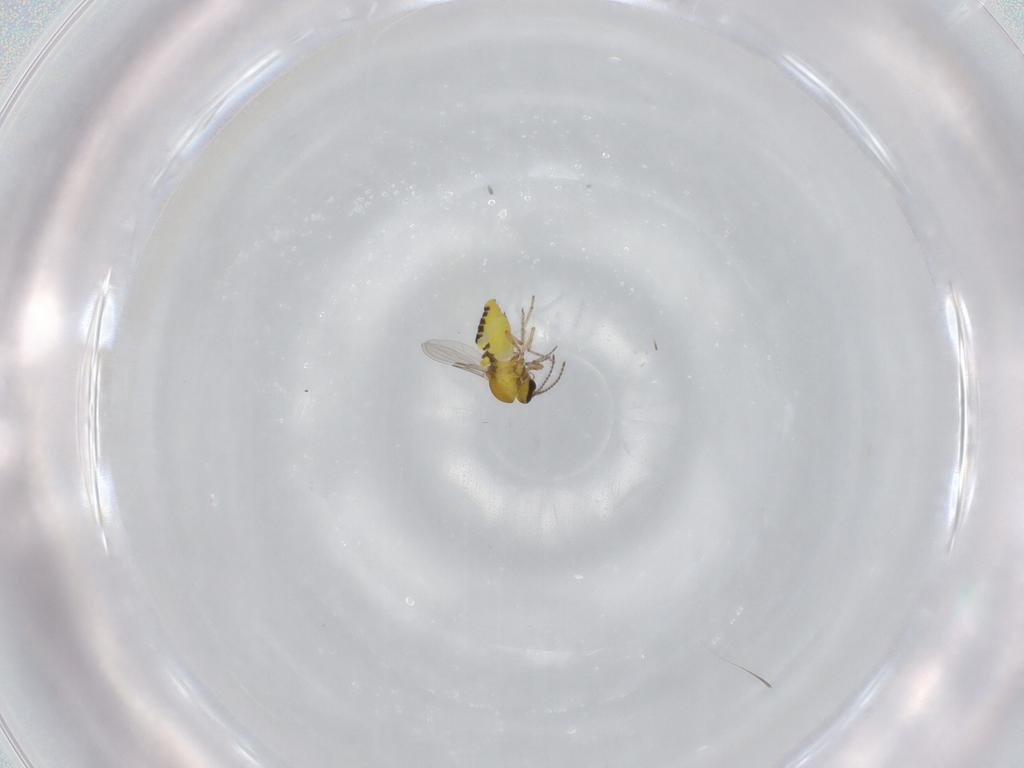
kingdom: Animalia
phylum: Arthropoda
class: Insecta
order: Diptera
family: Ceratopogonidae
